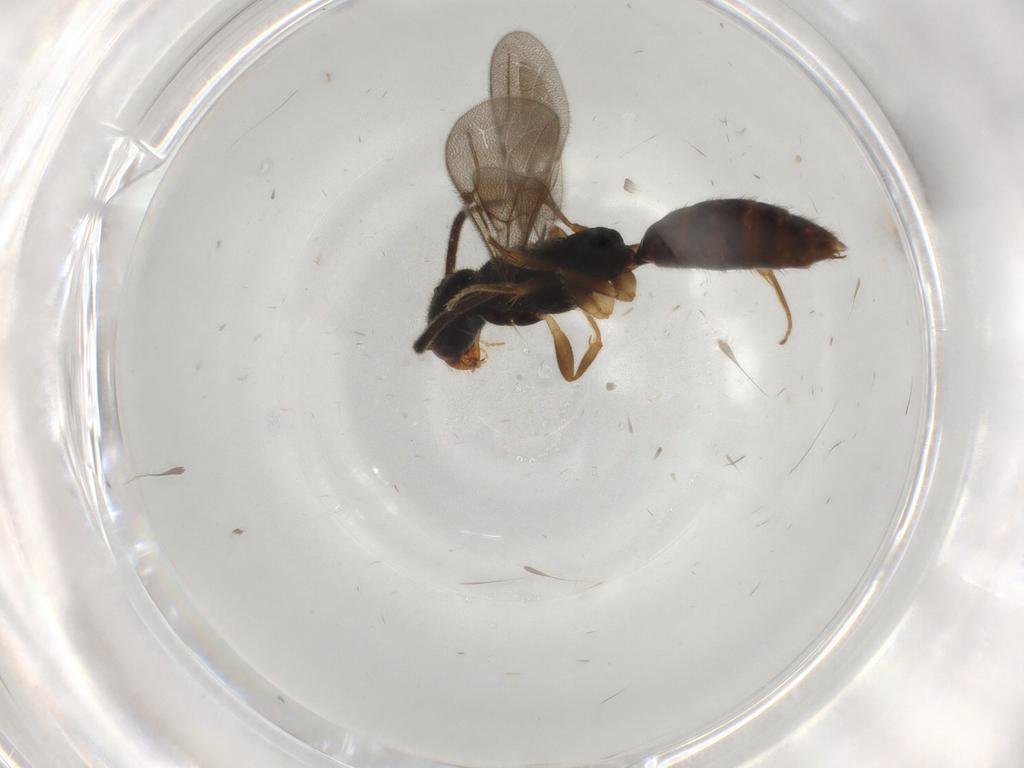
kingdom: Animalia
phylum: Arthropoda
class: Insecta
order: Hymenoptera
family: Bethylidae
